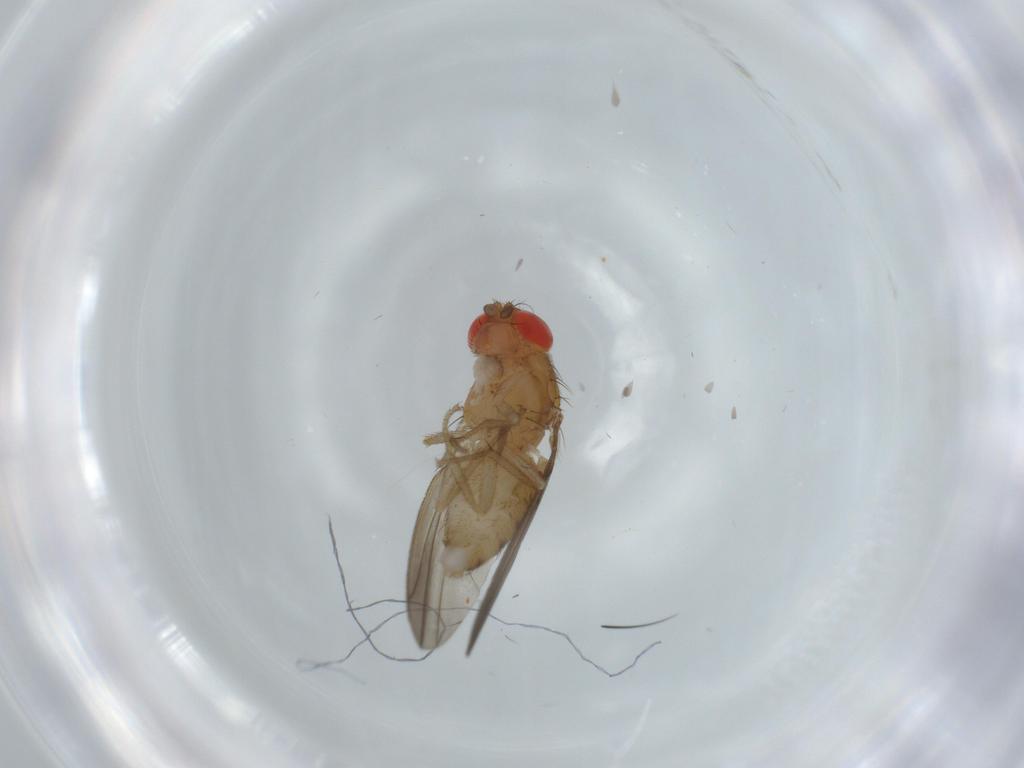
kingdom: Animalia
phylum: Arthropoda
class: Insecta
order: Diptera
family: Drosophilidae
